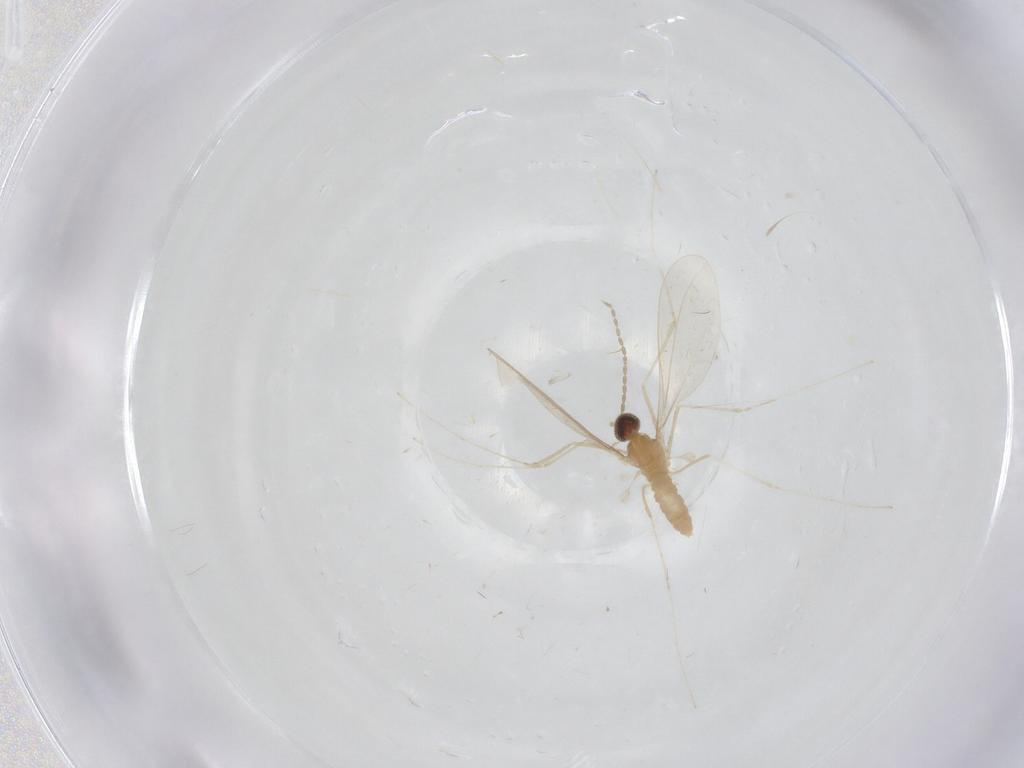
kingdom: Animalia
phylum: Arthropoda
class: Insecta
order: Diptera
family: Cecidomyiidae
